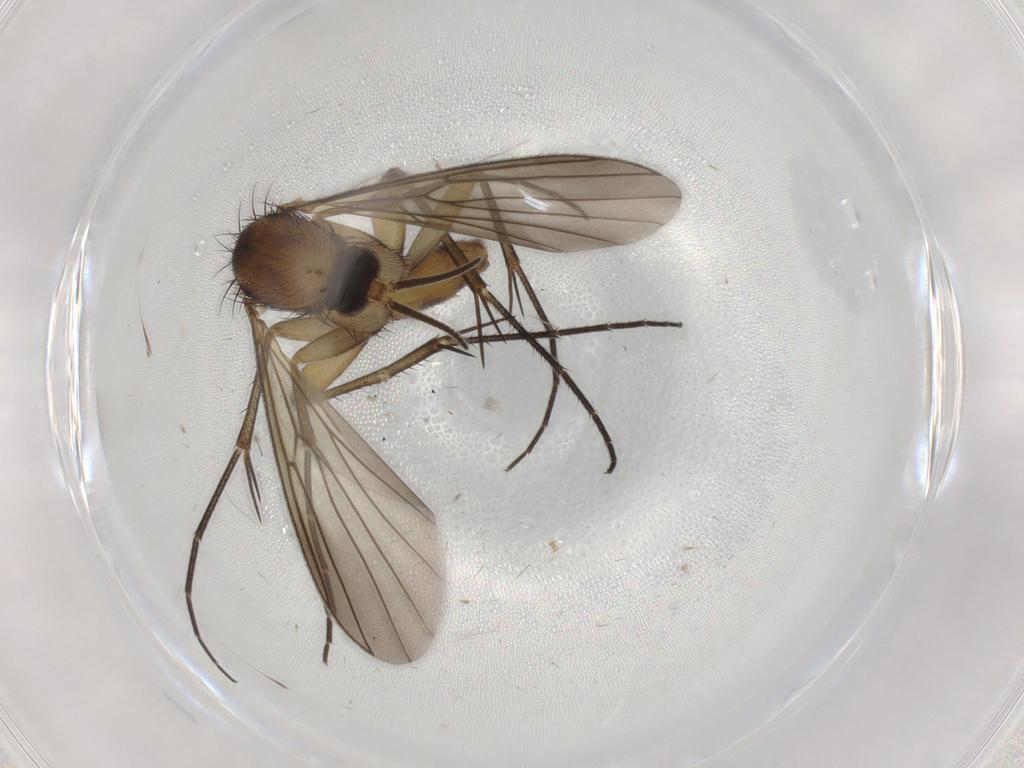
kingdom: Animalia
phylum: Arthropoda
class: Insecta
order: Diptera
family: Mycetophilidae
